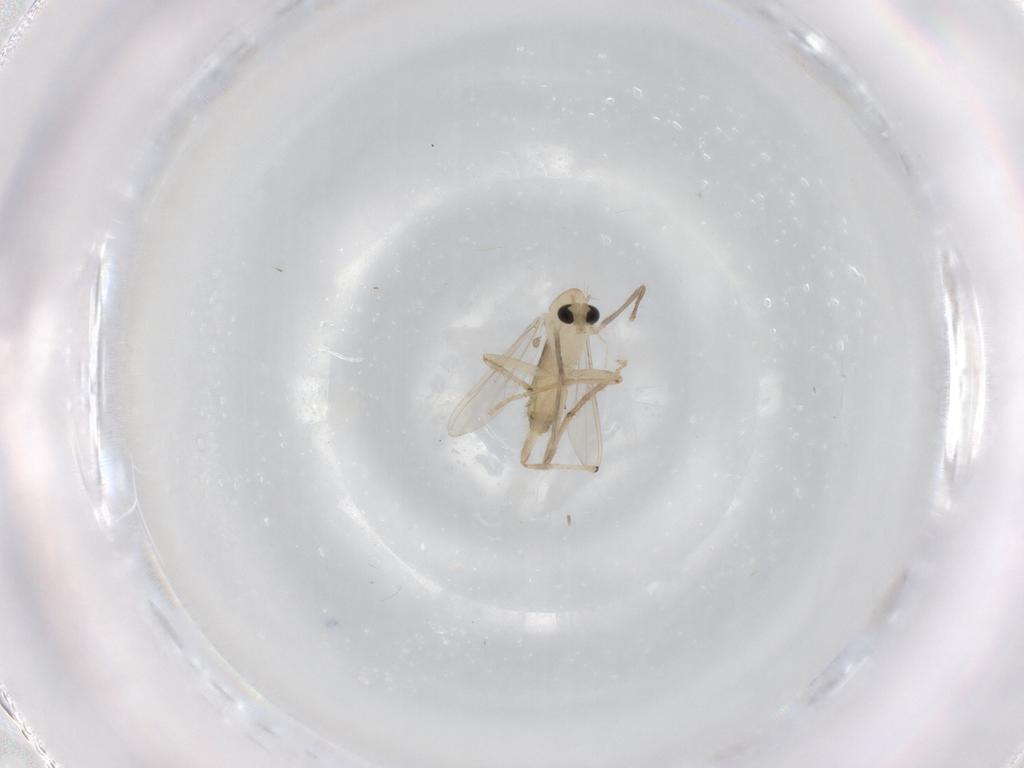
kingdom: Animalia
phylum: Arthropoda
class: Insecta
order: Diptera
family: Chironomidae
